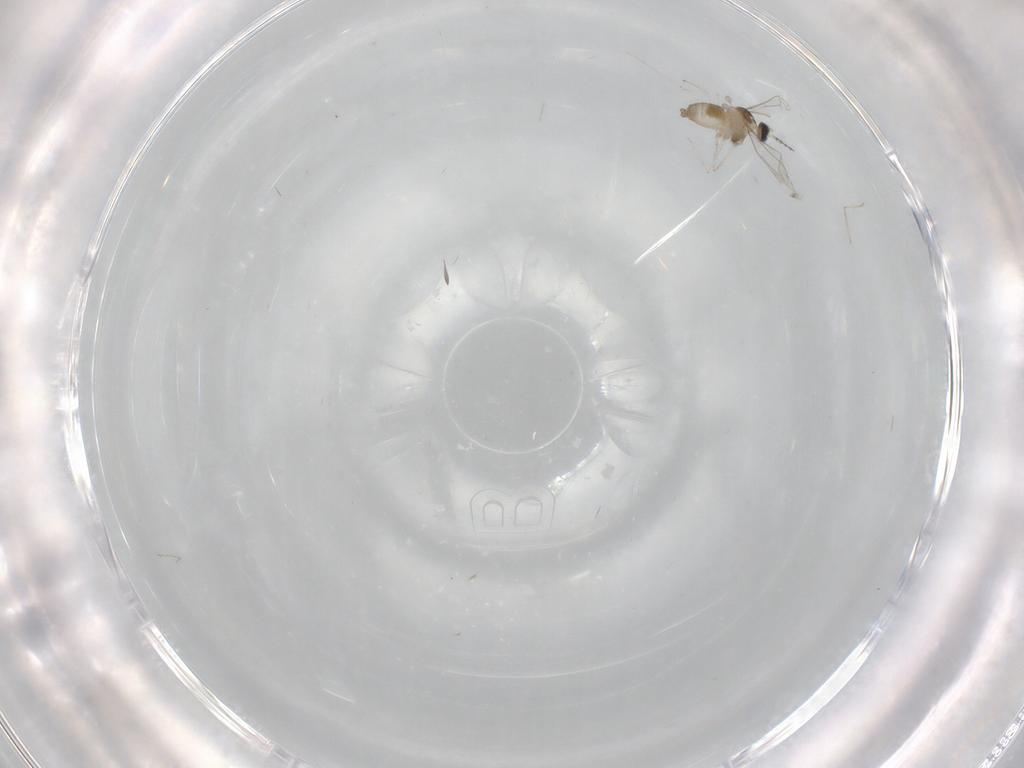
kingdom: Animalia
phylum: Arthropoda
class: Insecta
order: Diptera
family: Cecidomyiidae
